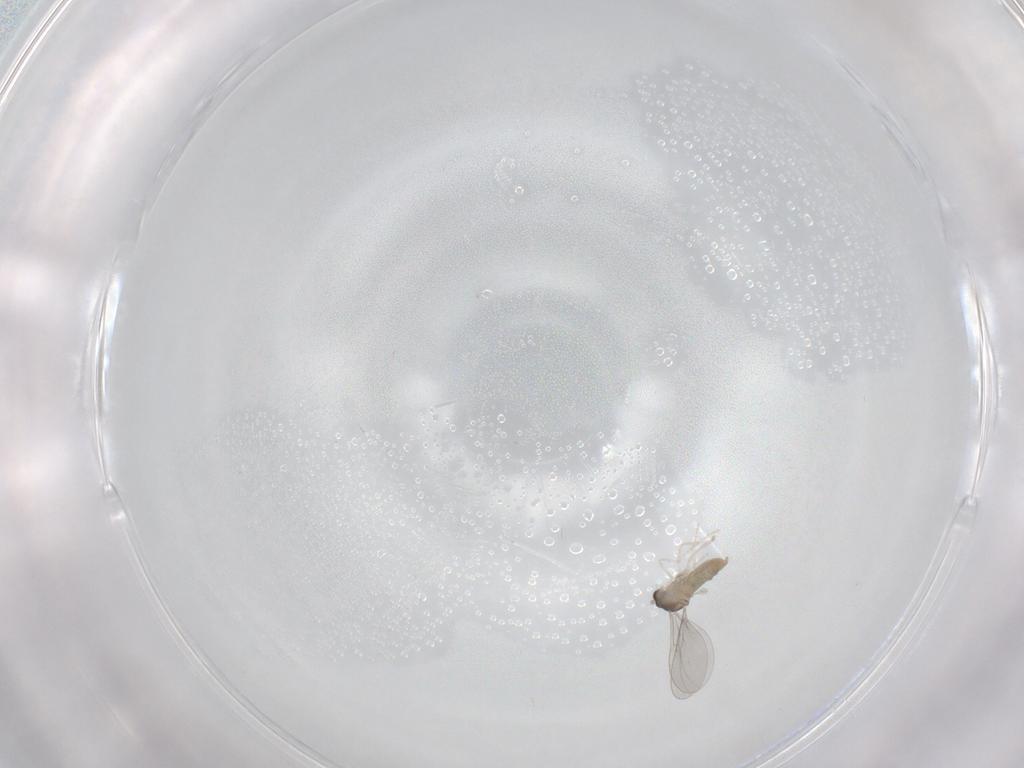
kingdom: Animalia
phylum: Arthropoda
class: Insecta
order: Diptera
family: Cecidomyiidae
